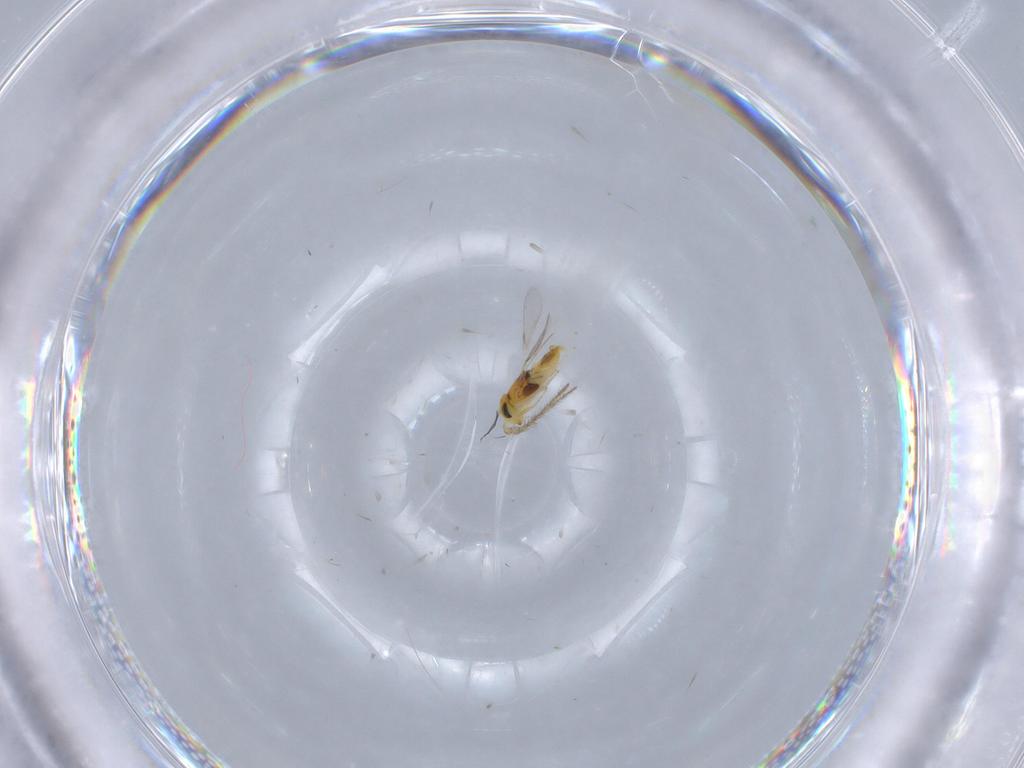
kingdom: Animalia
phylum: Arthropoda
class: Insecta
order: Hymenoptera
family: Encyrtidae
